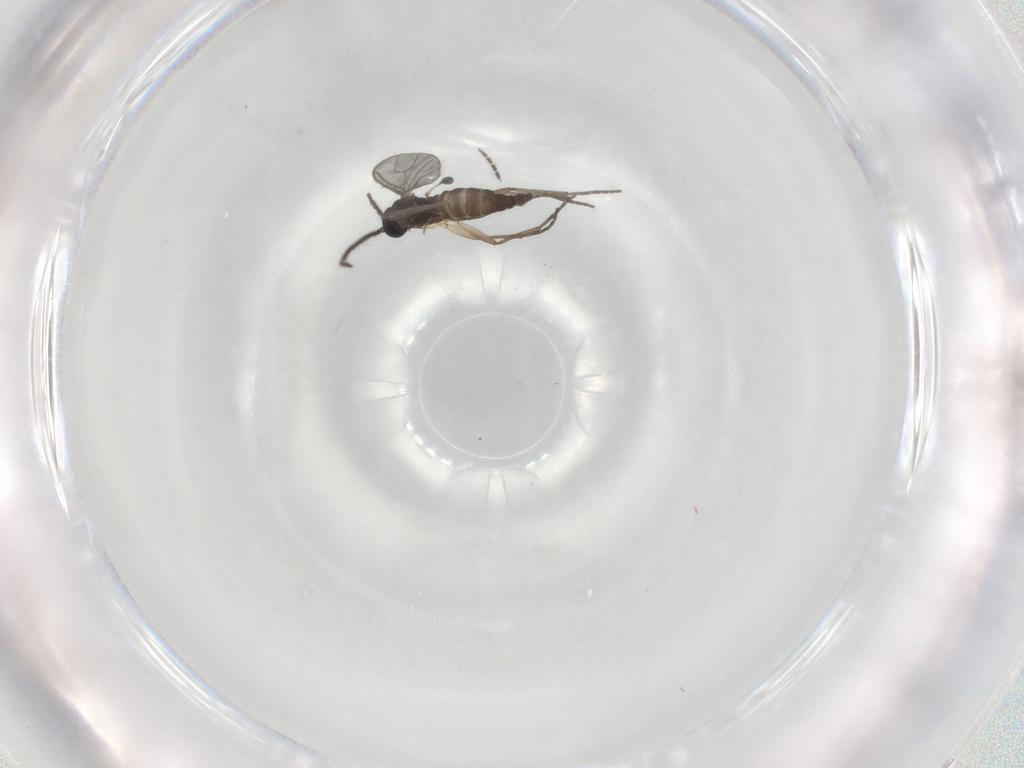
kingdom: Animalia
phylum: Arthropoda
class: Insecta
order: Diptera
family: Sciaridae
